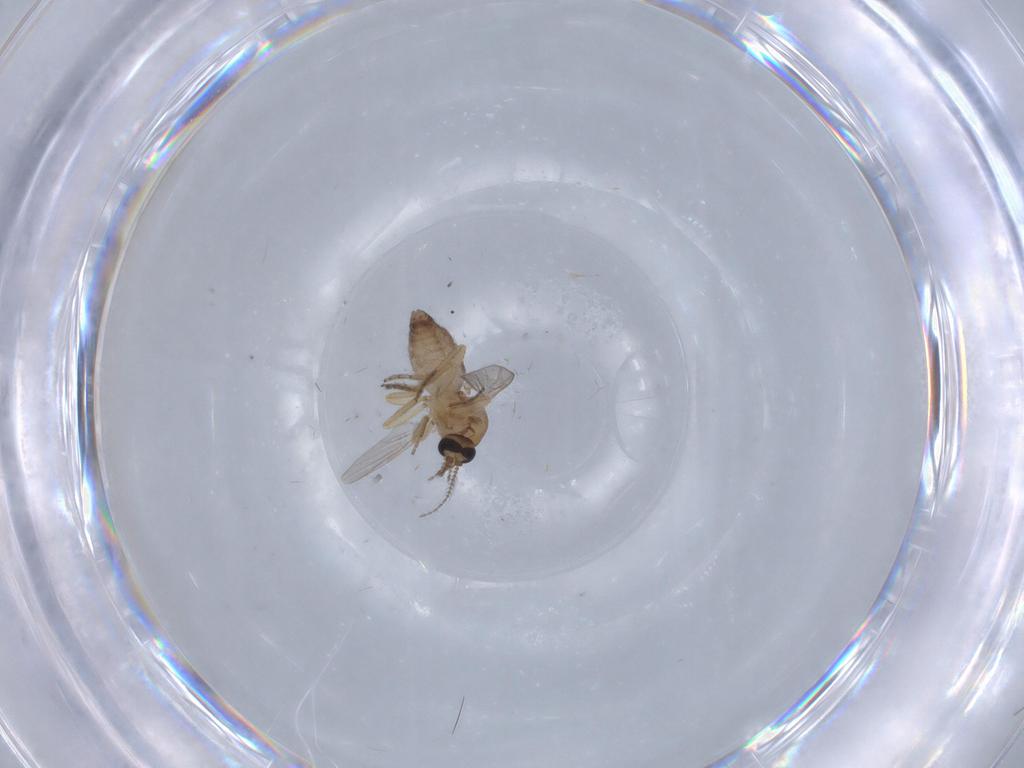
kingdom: Animalia
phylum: Arthropoda
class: Insecta
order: Diptera
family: Ceratopogonidae
